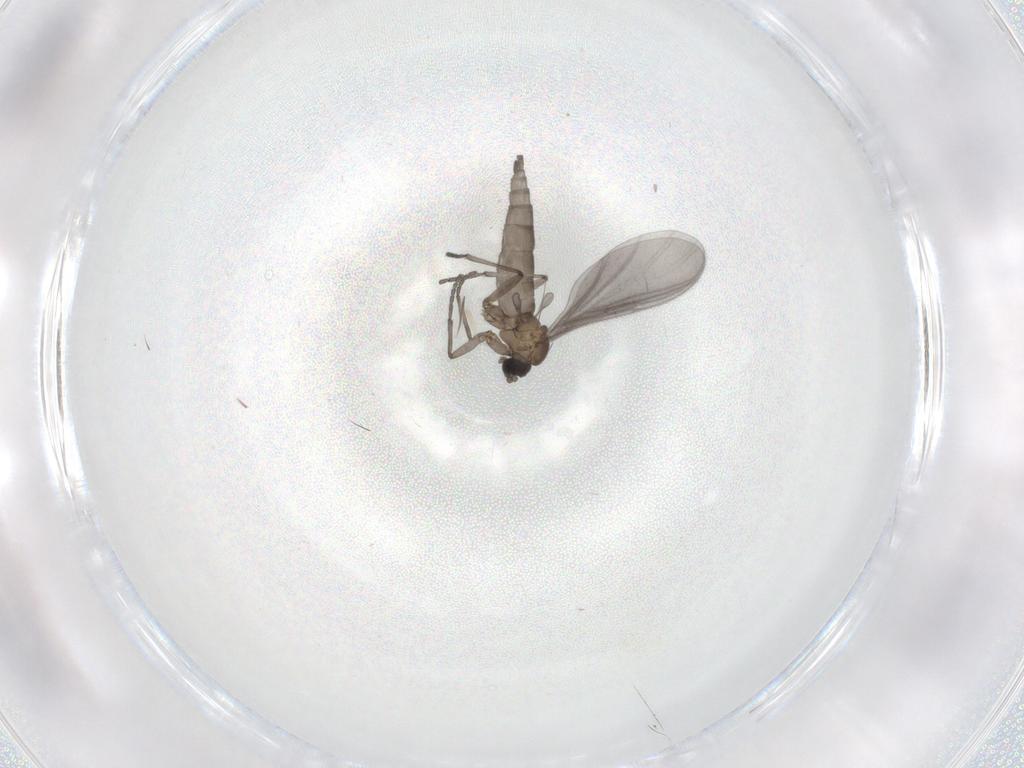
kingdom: Animalia
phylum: Arthropoda
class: Insecta
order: Diptera
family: Sciaridae
